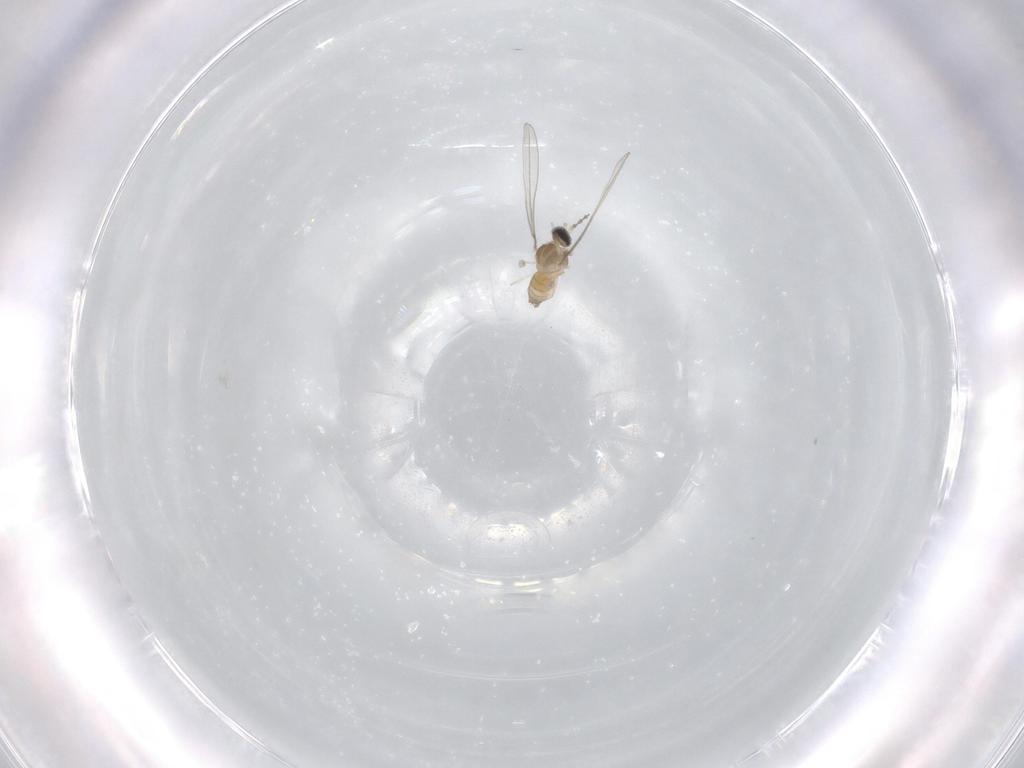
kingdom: Animalia
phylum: Arthropoda
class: Insecta
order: Diptera
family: Cecidomyiidae
